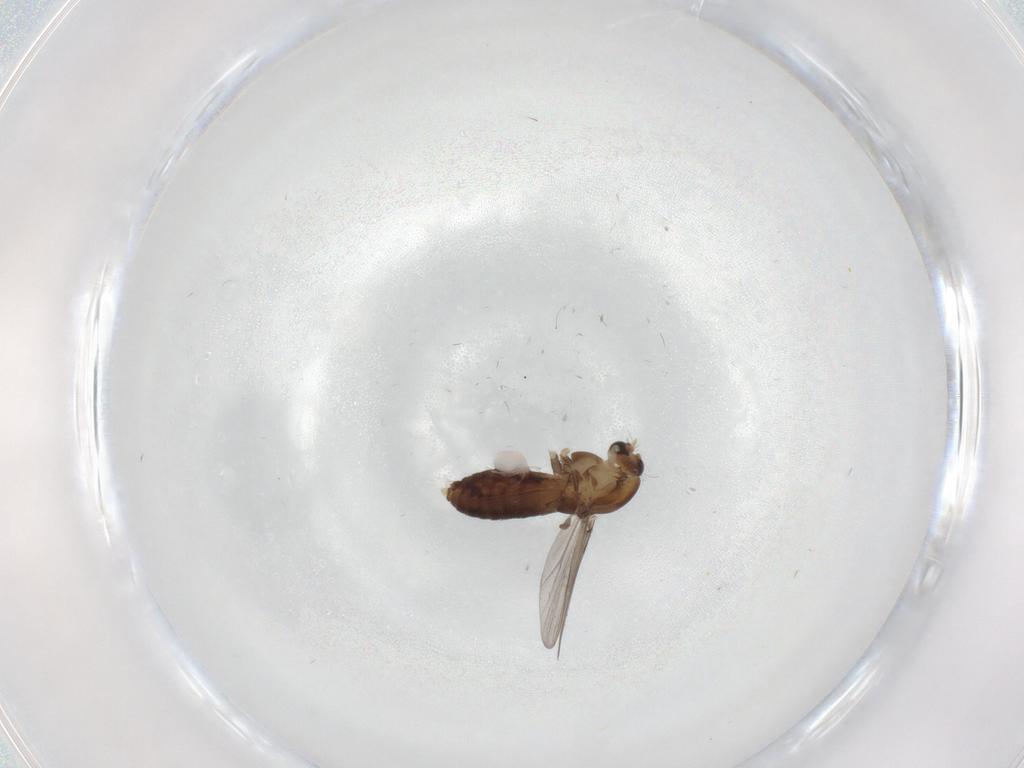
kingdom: Animalia
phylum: Arthropoda
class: Insecta
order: Diptera
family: Chironomidae
